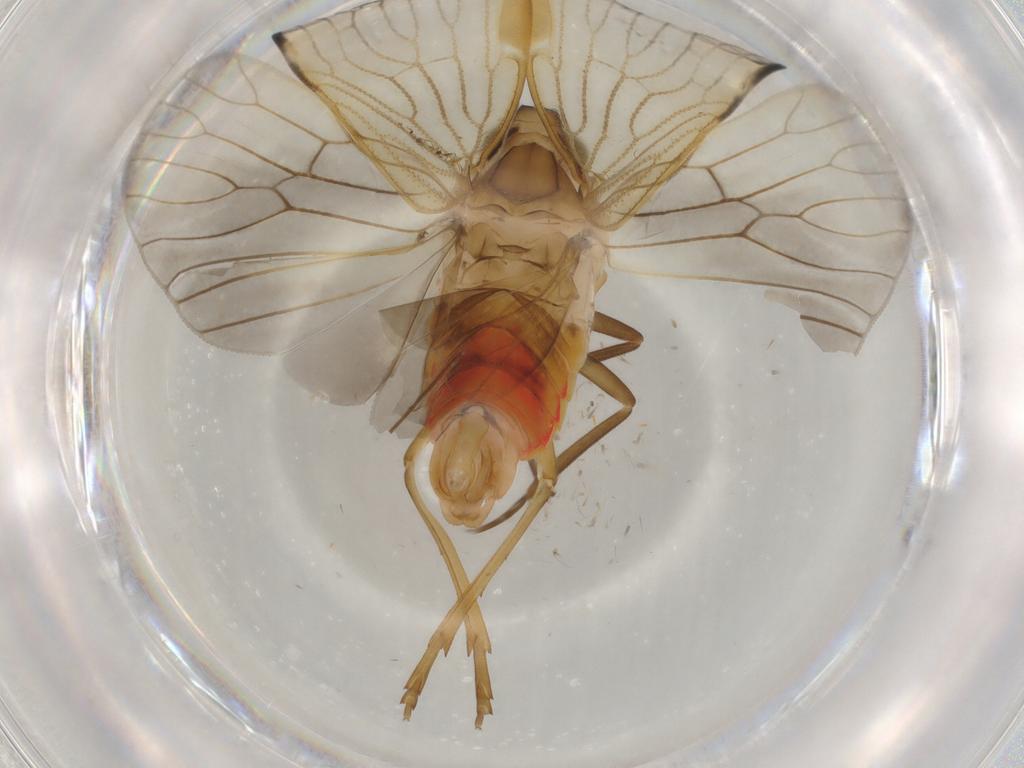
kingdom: Animalia
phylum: Arthropoda
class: Insecta
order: Hemiptera
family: Cixiidae
